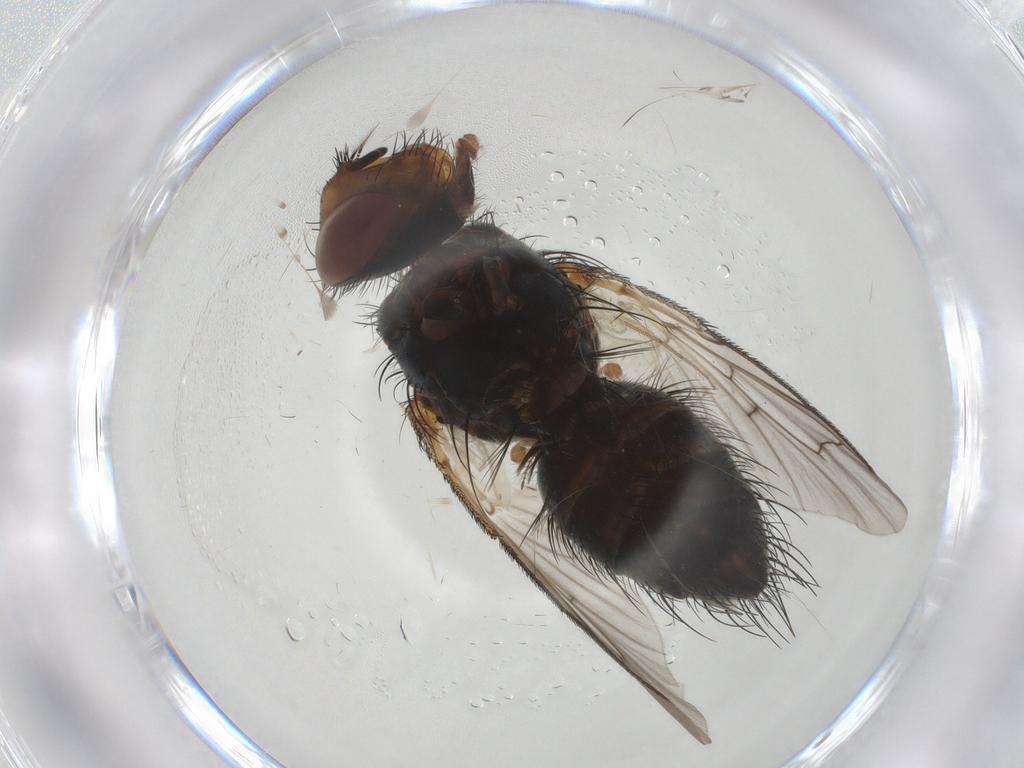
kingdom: Animalia
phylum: Arthropoda
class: Insecta
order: Diptera
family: Tachinidae
